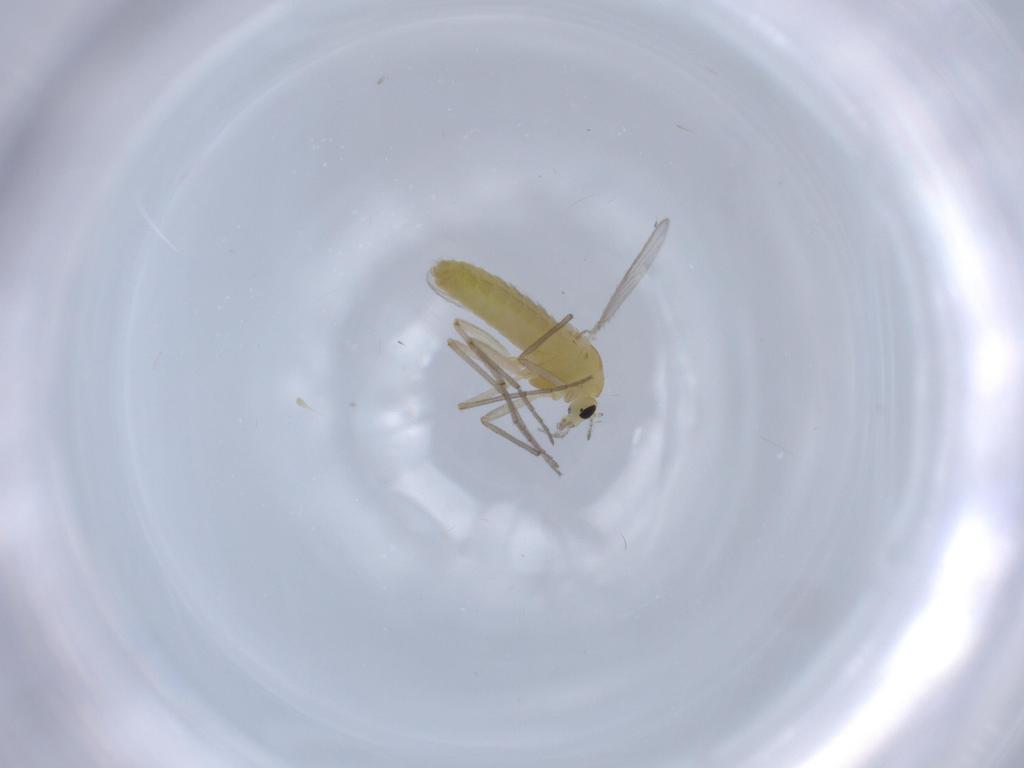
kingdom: Animalia
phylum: Arthropoda
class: Insecta
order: Diptera
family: Chironomidae
